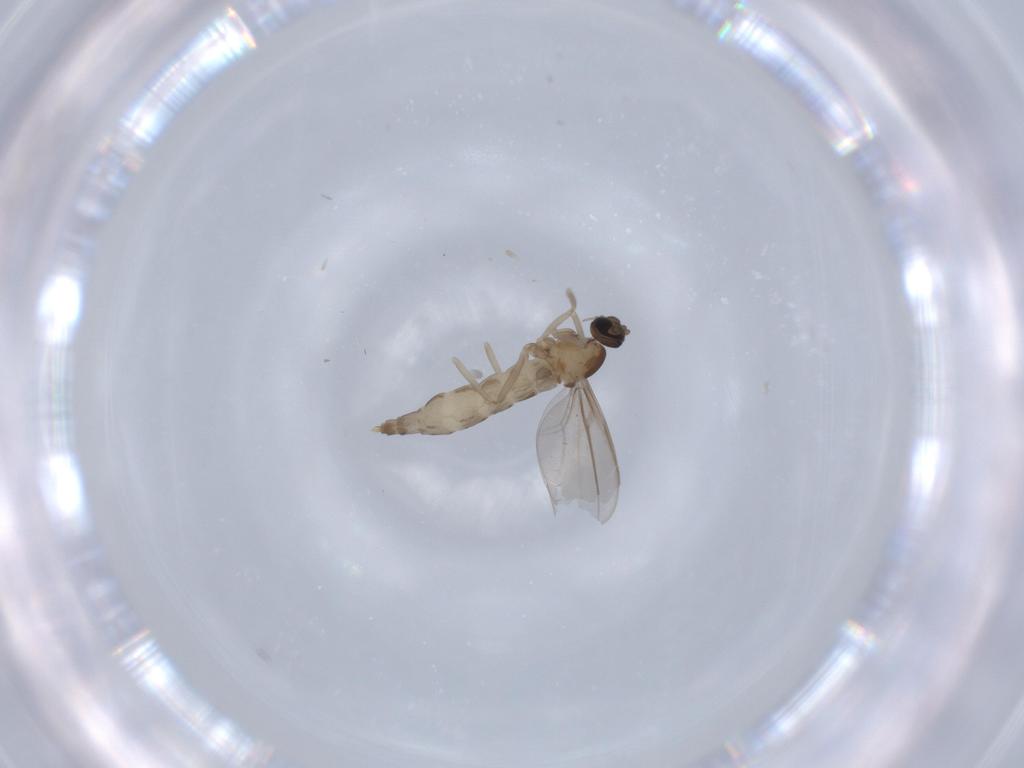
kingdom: Animalia
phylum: Arthropoda
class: Insecta
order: Diptera
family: Cecidomyiidae
